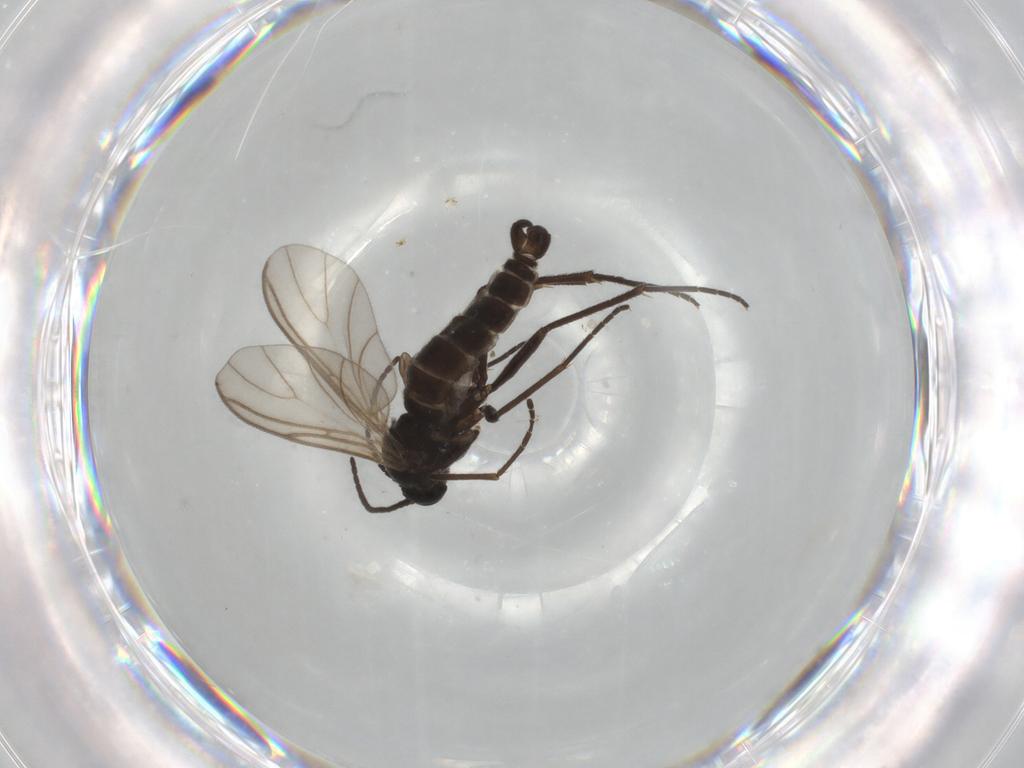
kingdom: Animalia
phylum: Arthropoda
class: Insecta
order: Diptera
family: Sciaridae
